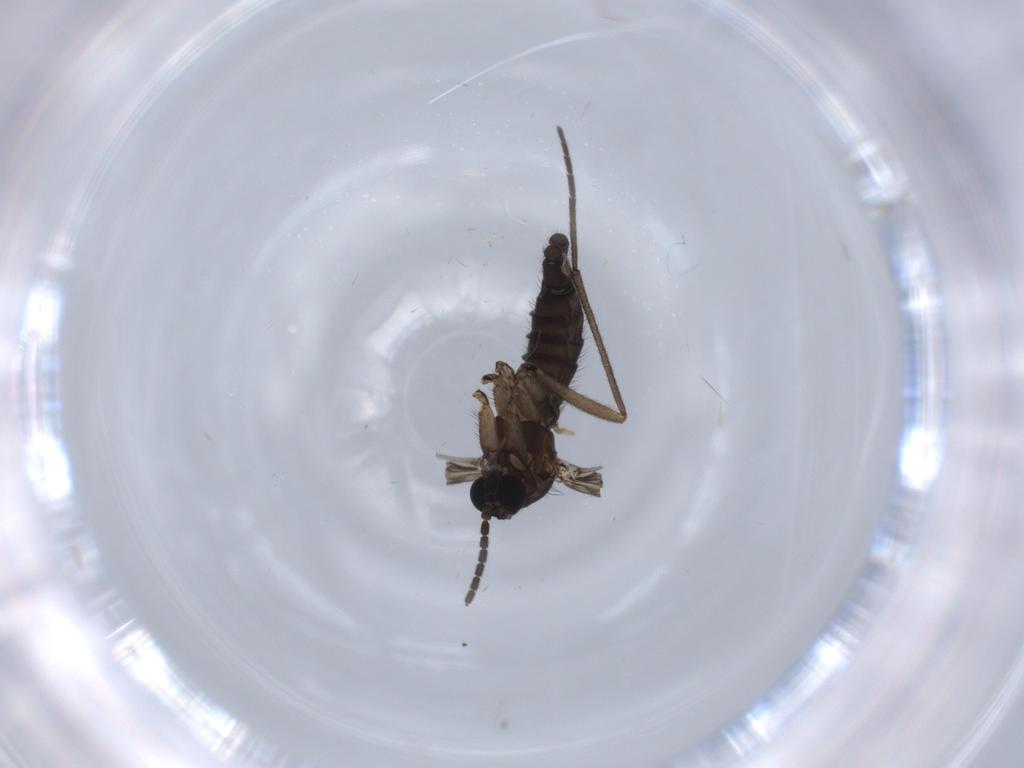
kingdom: Animalia
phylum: Arthropoda
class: Insecta
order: Diptera
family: Sciaridae
